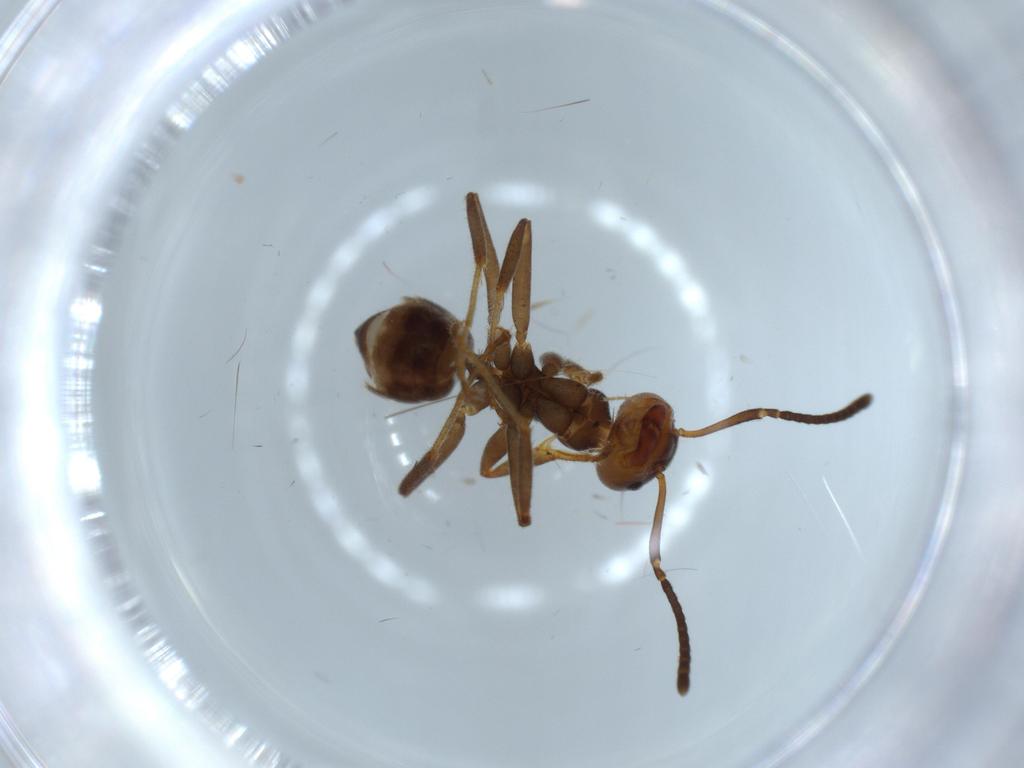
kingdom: Animalia
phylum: Arthropoda
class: Insecta
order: Hymenoptera
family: Formicidae
